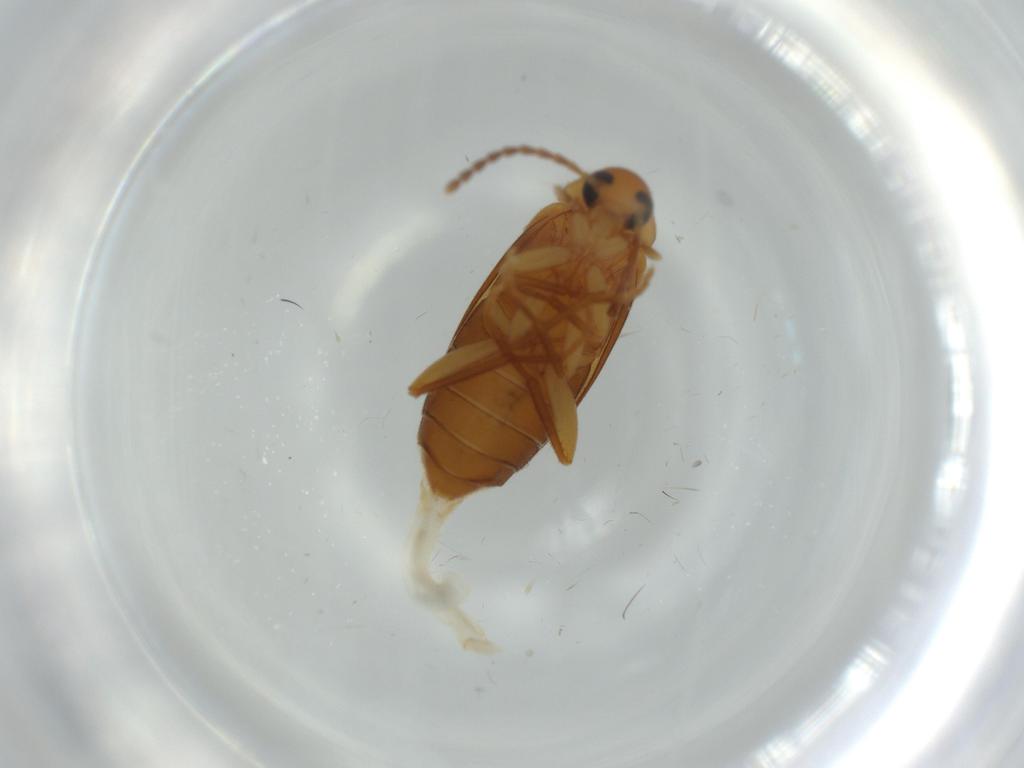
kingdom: Animalia
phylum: Arthropoda
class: Insecta
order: Coleoptera
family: Scraptiidae
